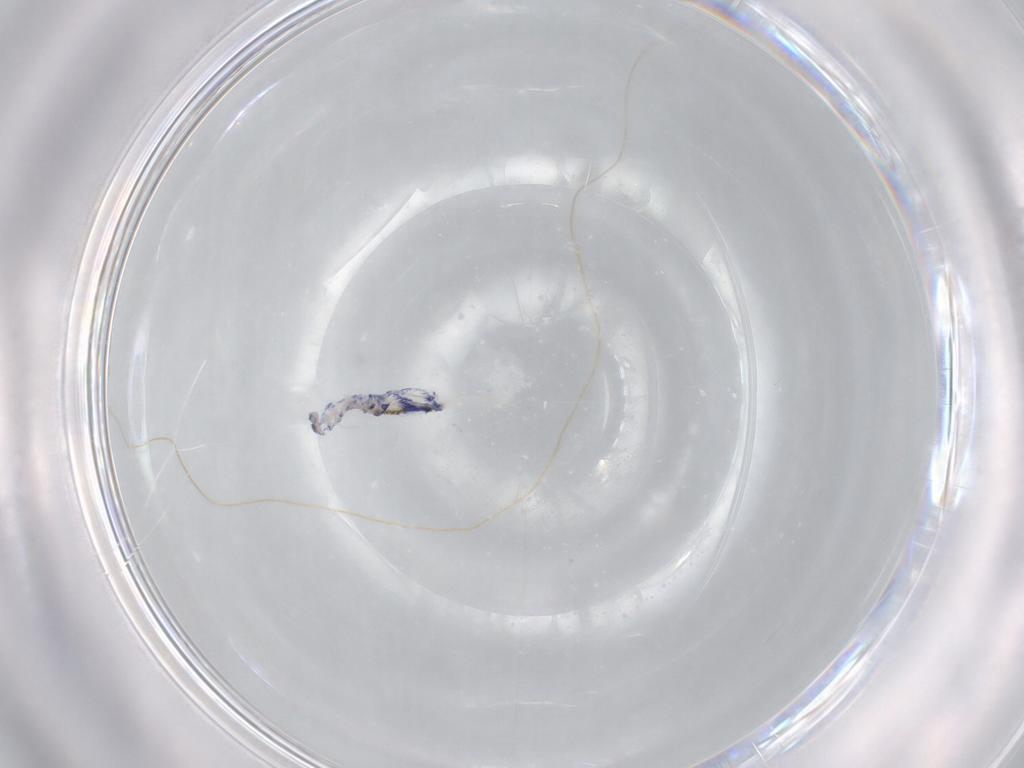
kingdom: Animalia
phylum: Arthropoda
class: Collembola
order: Entomobryomorpha
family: Entomobryidae
